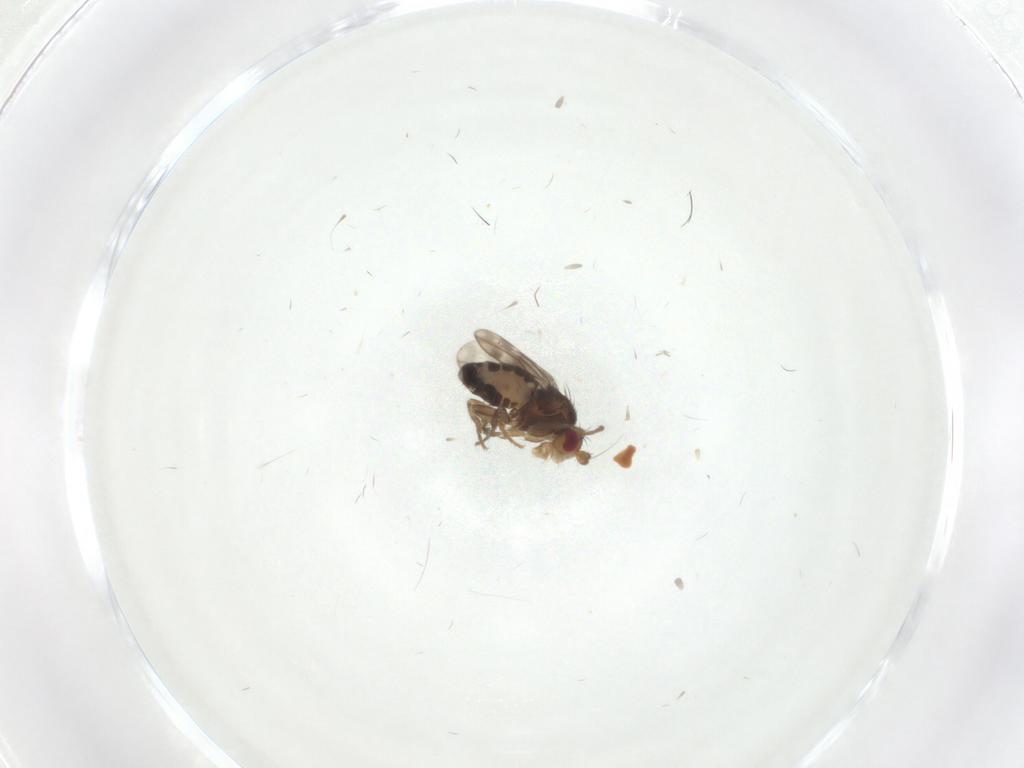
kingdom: Animalia
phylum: Arthropoda
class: Insecta
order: Diptera
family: Sphaeroceridae
